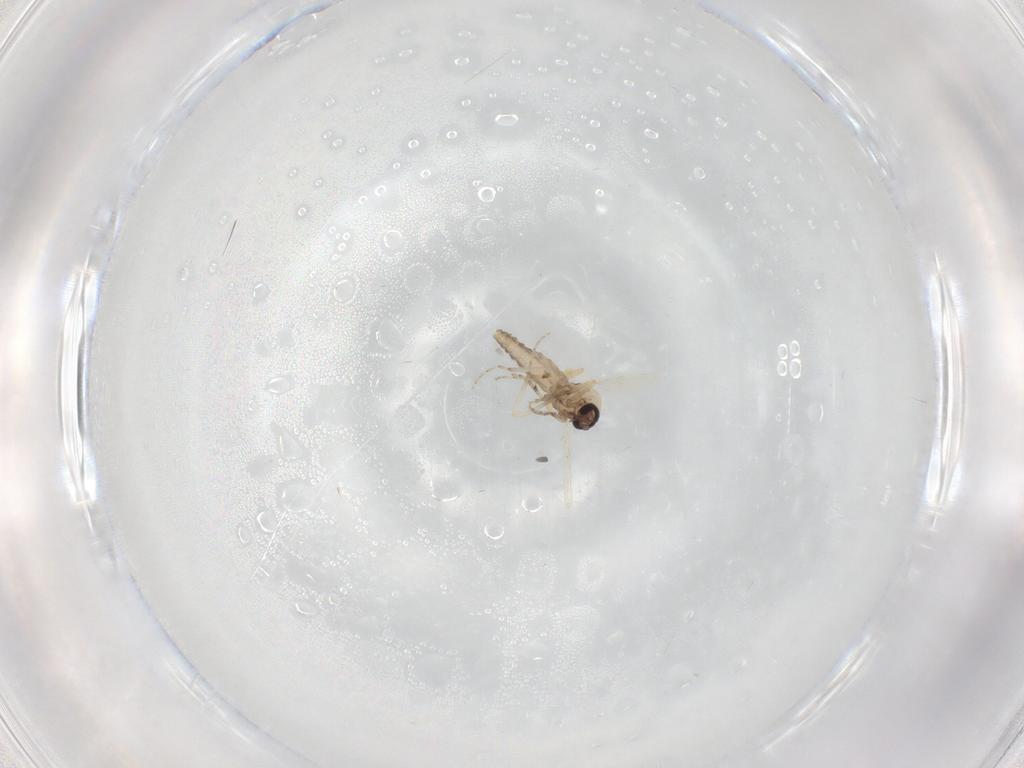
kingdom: Animalia
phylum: Arthropoda
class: Insecta
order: Diptera
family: Ceratopogonidae
